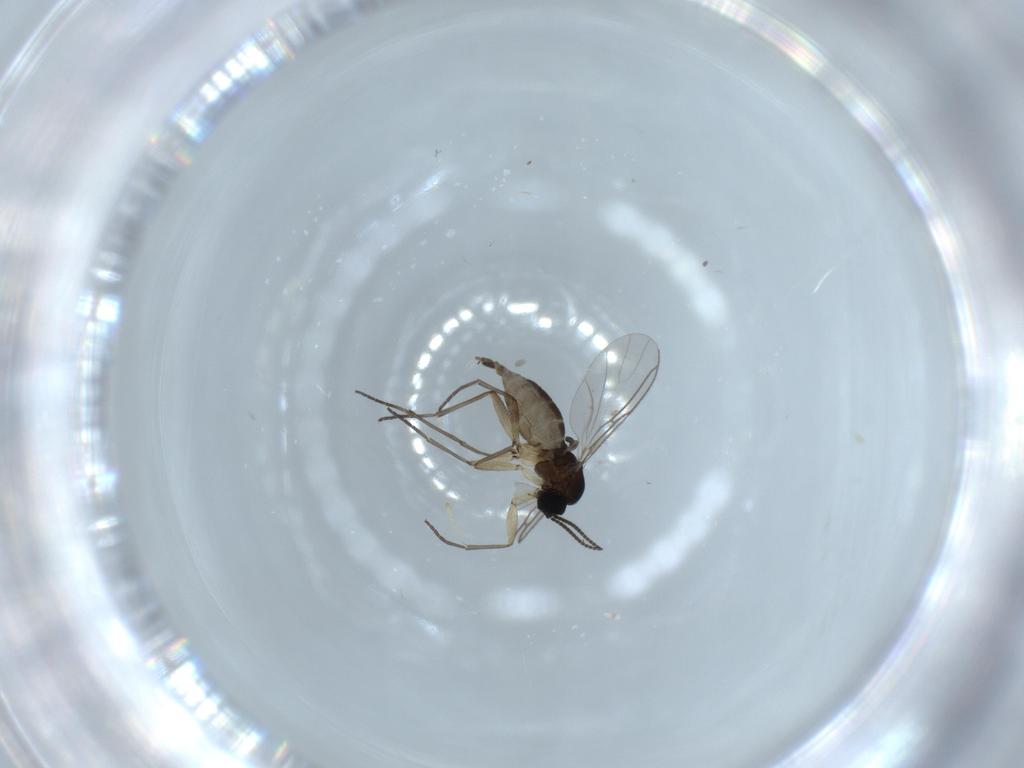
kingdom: Animalia
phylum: Arthropoda
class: Insecta
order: Diptera
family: Sciaridae
